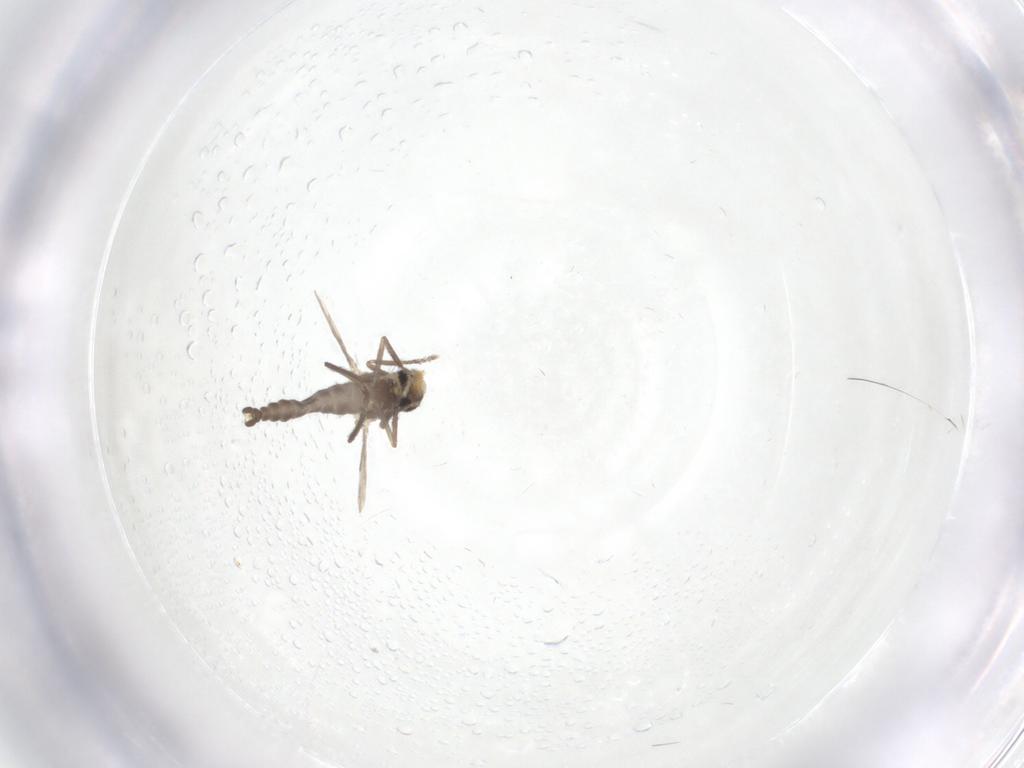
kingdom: Animalia
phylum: Arthropoda
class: Insecta
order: Diptera
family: Ceratopogonidae
